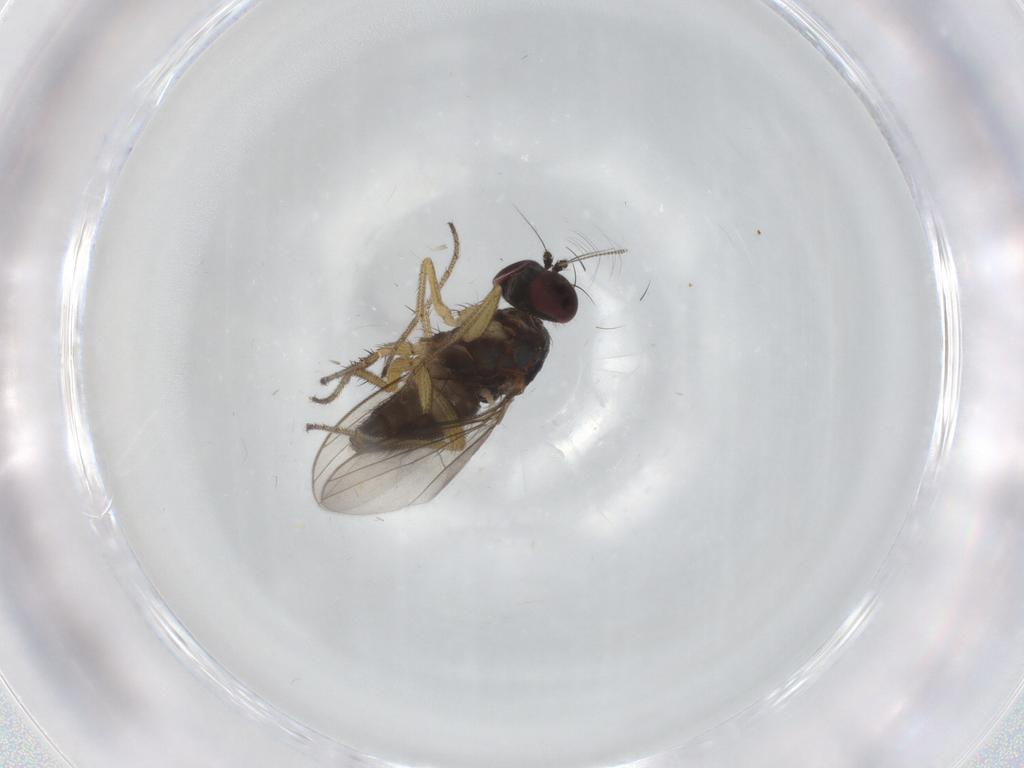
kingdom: Animalia
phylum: Arthropoda
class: Insecta
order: Diptera
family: Dolichopodidae
